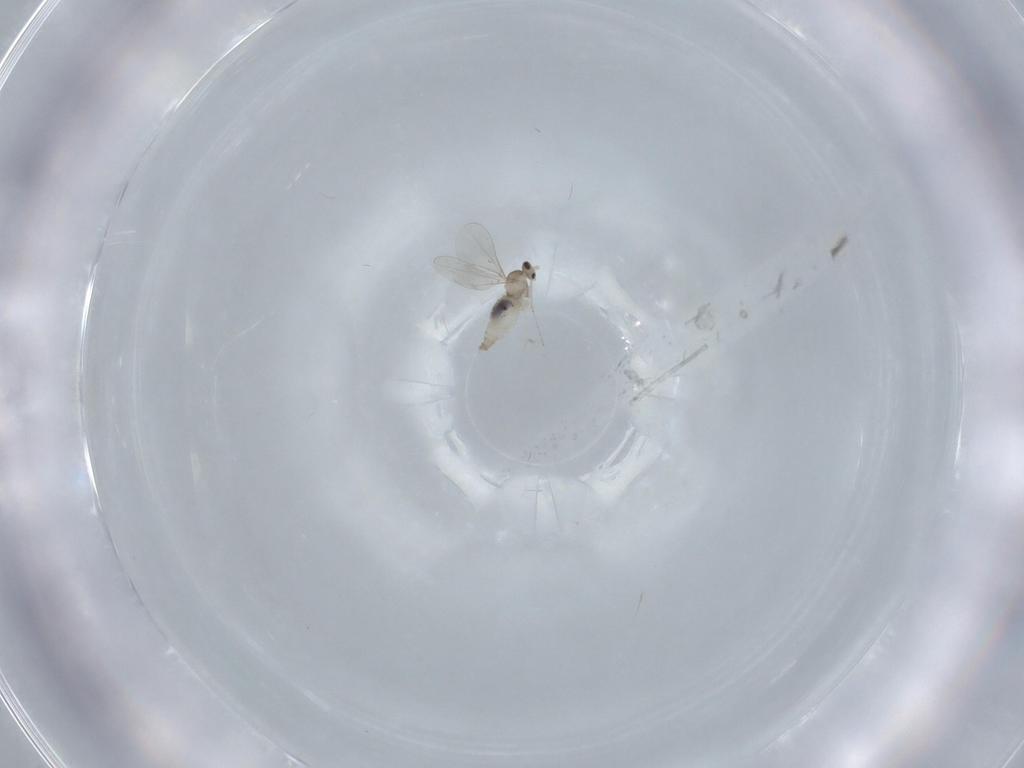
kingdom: Animalia
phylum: Arthropoda
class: Insecta
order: Diptera
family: Cecidomyiidae
